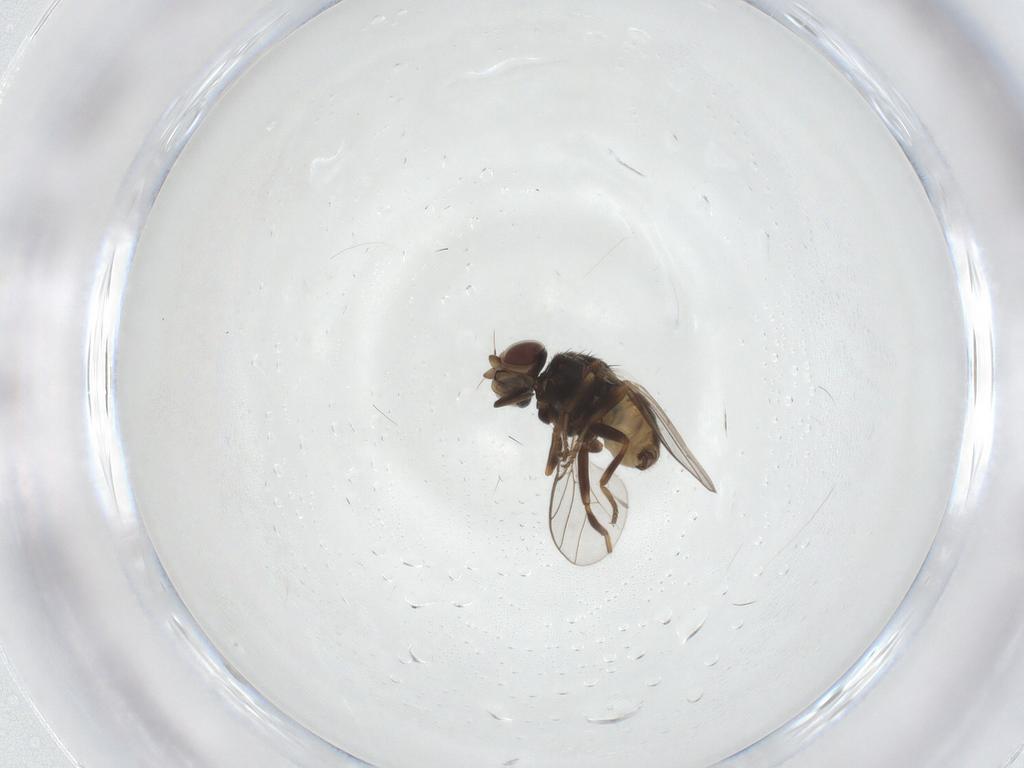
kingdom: Animalia
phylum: Arthropoda
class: Insecta
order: Diptera
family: Chloropidae
